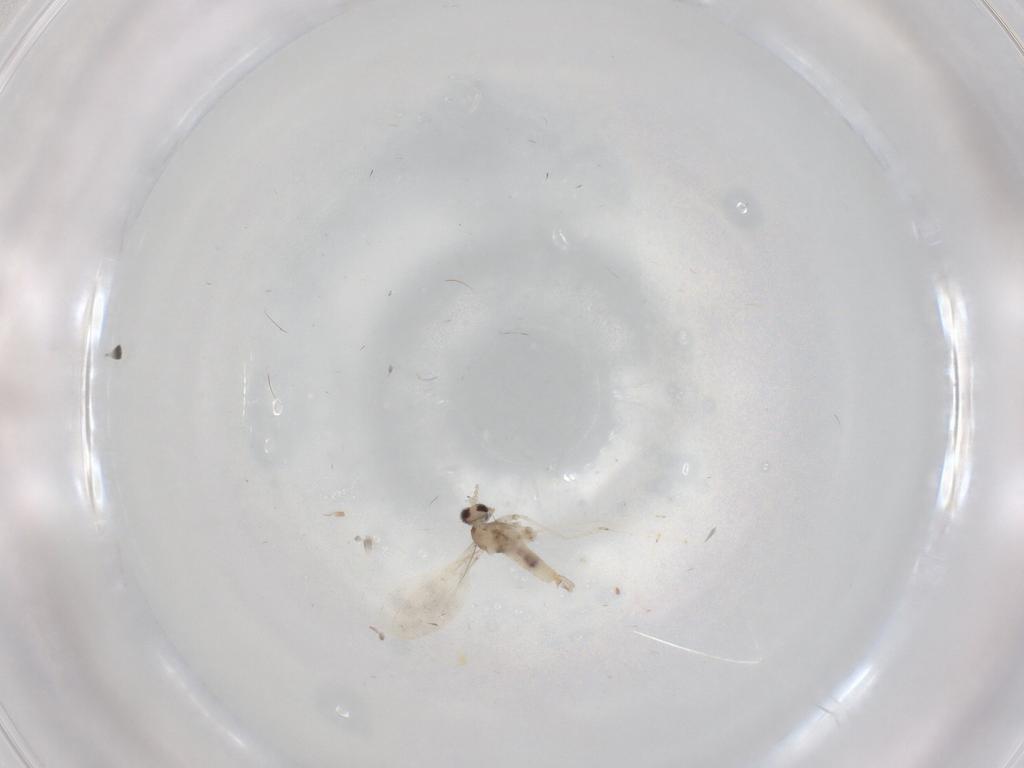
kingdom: Animalia
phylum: Arthropoda
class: Insecta
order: Diptera
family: Cecidomyiidae
